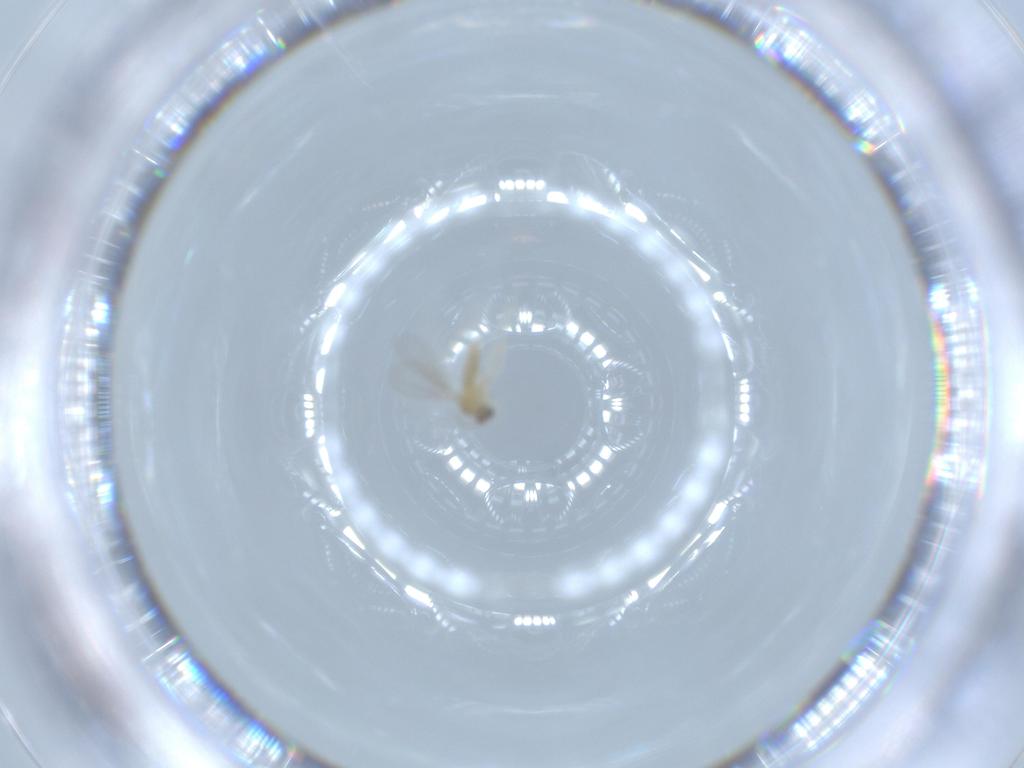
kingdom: Animalia
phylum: Arthropoda
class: Insecta
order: Diptera
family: Cecidomyiidae
